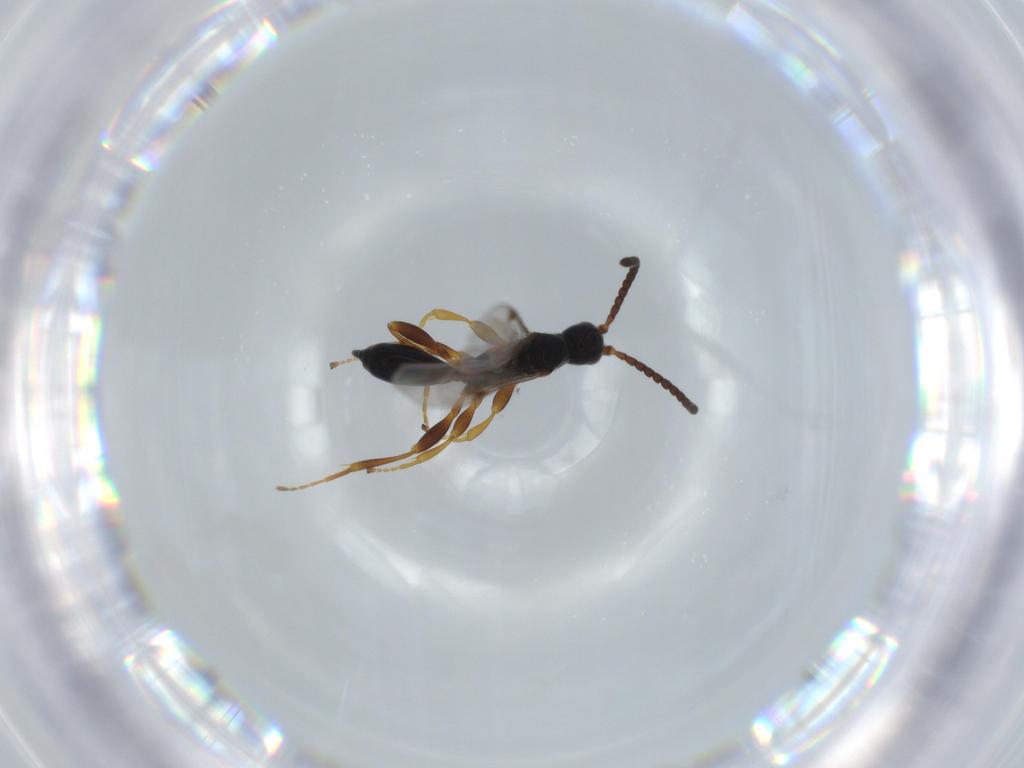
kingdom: Animalia
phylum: Arthropoda
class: Insecta
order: Hymenoptera
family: Proctotrupidae
